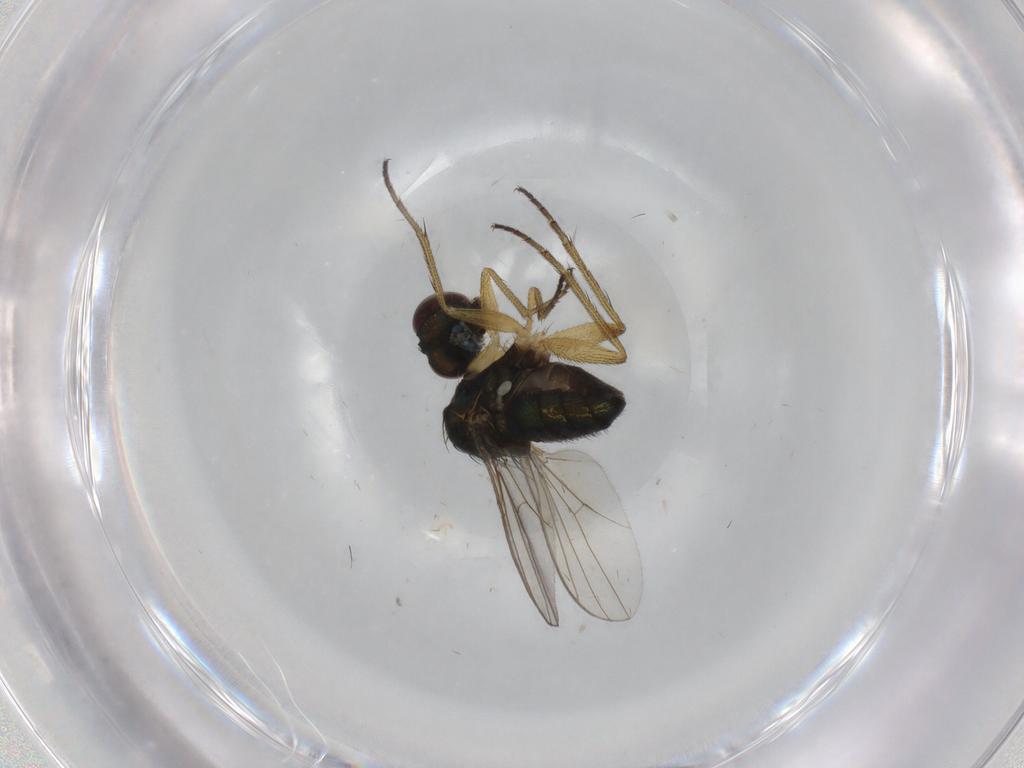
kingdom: Animalia
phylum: Arthropoda
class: Insecta
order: Diptera
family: Dolichopodidae
